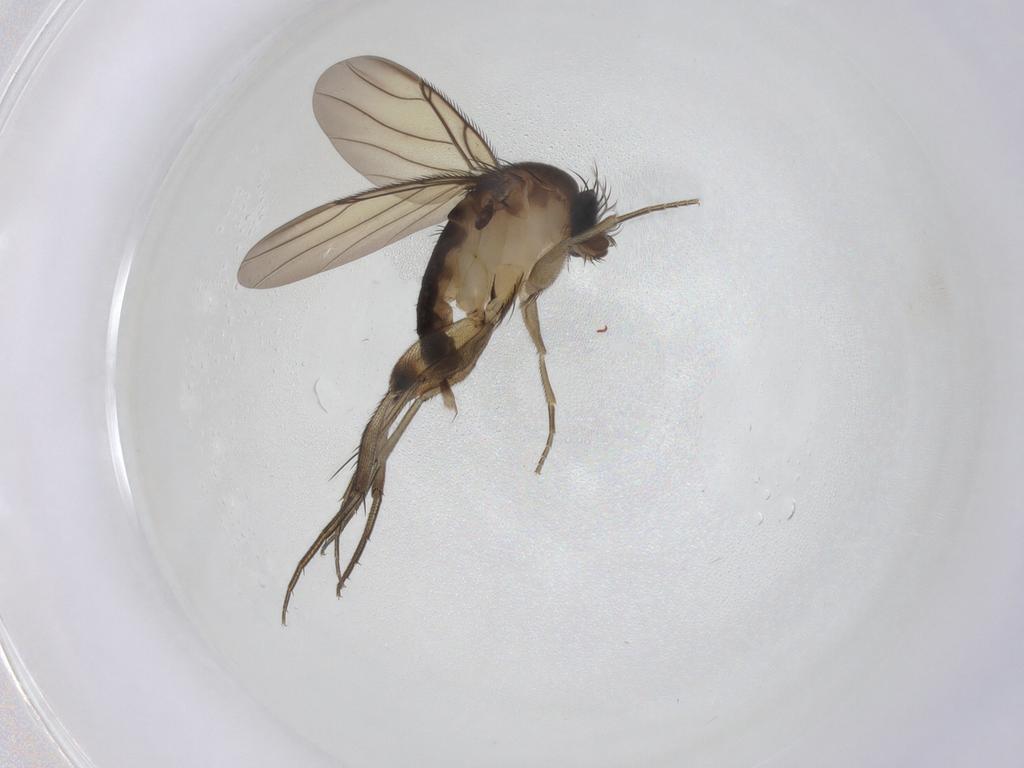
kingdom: Animalia
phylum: Arthropoda
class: Insecta
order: Diptera
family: Phoridae
